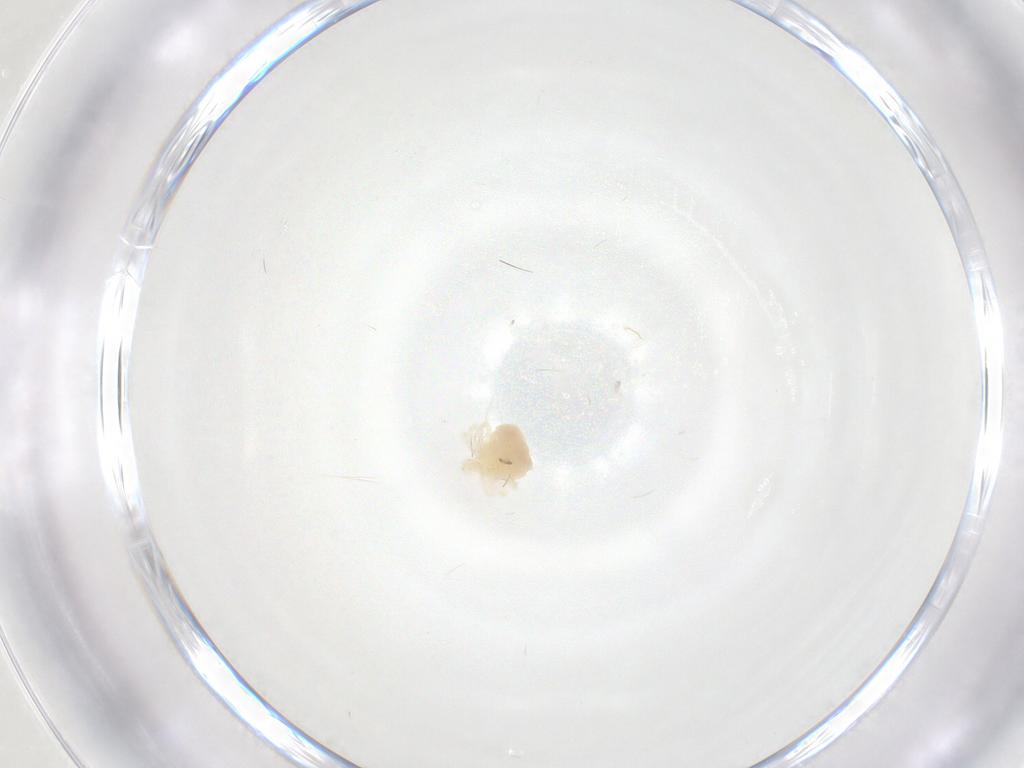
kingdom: Animalia
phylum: Arthropoda
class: Arachnida
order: Trombidiformes
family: Anystidae
